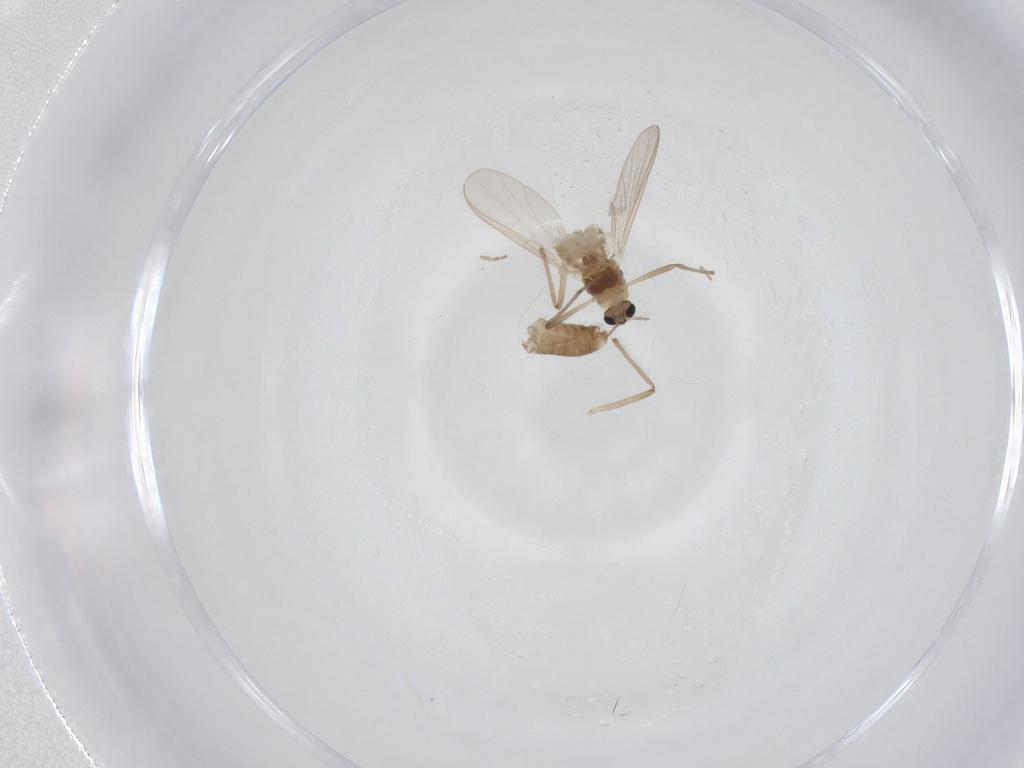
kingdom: Animalia
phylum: Arthropoda
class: Insecta
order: Diptera
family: Chironomidae
